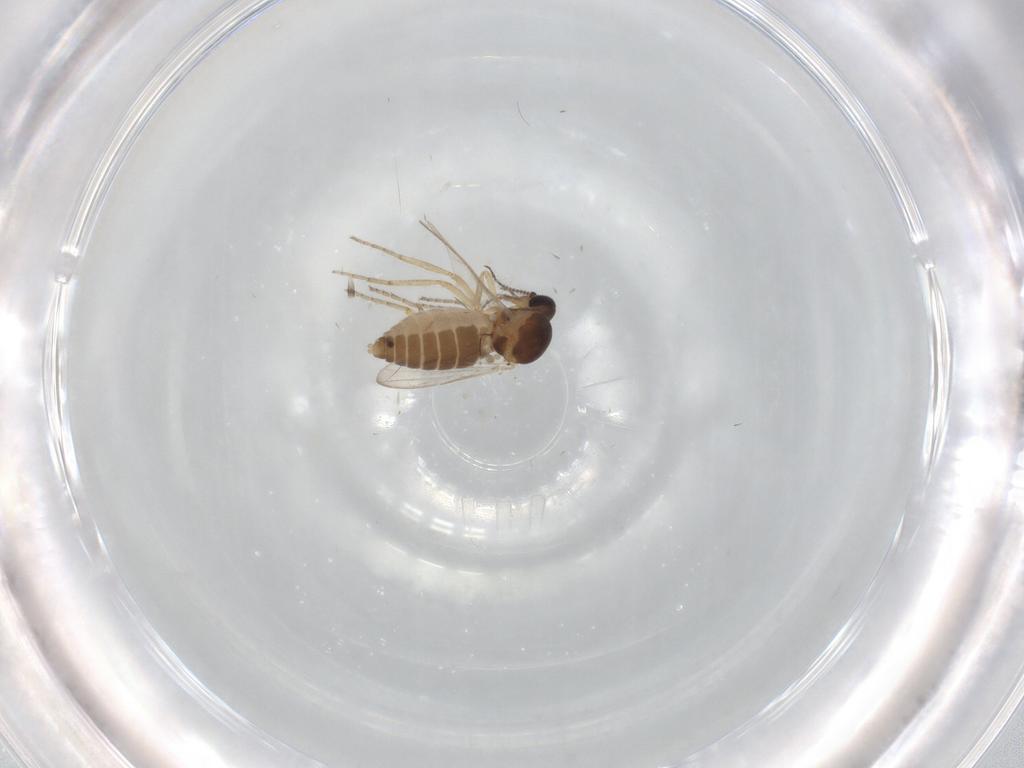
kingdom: Animalia
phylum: Arthropoda
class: Insecta
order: Diptera
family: Ceratopogonidae
